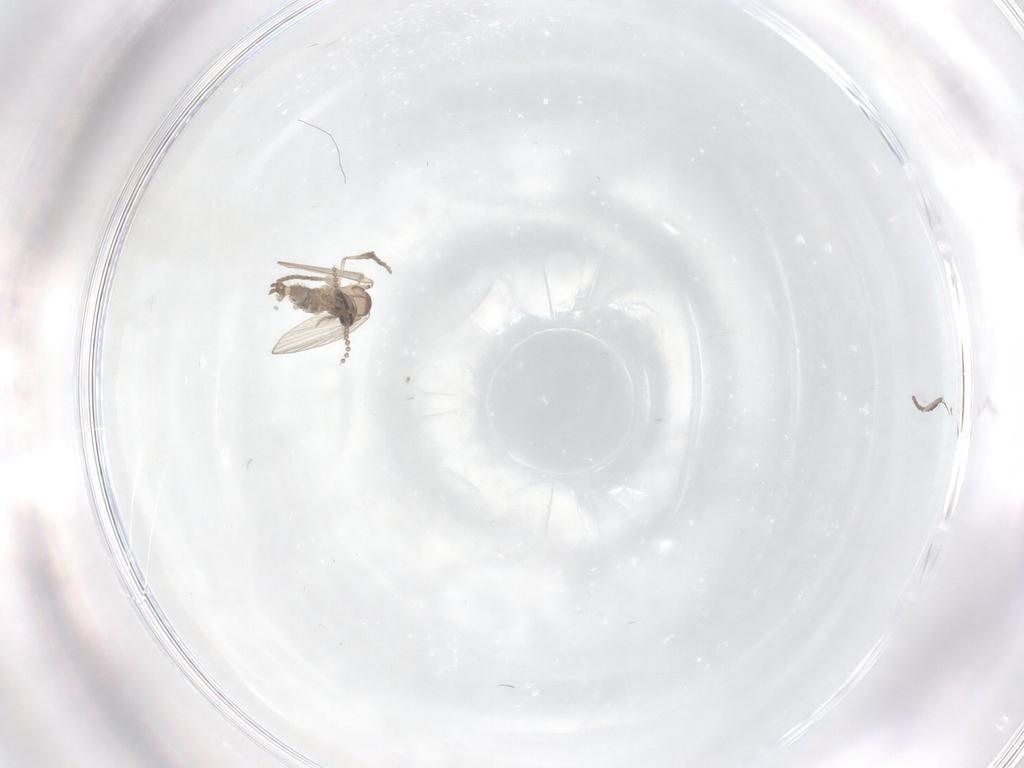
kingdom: Animalia
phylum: Arthropoda
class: Insecta
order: Diptera
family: Psychodidae
